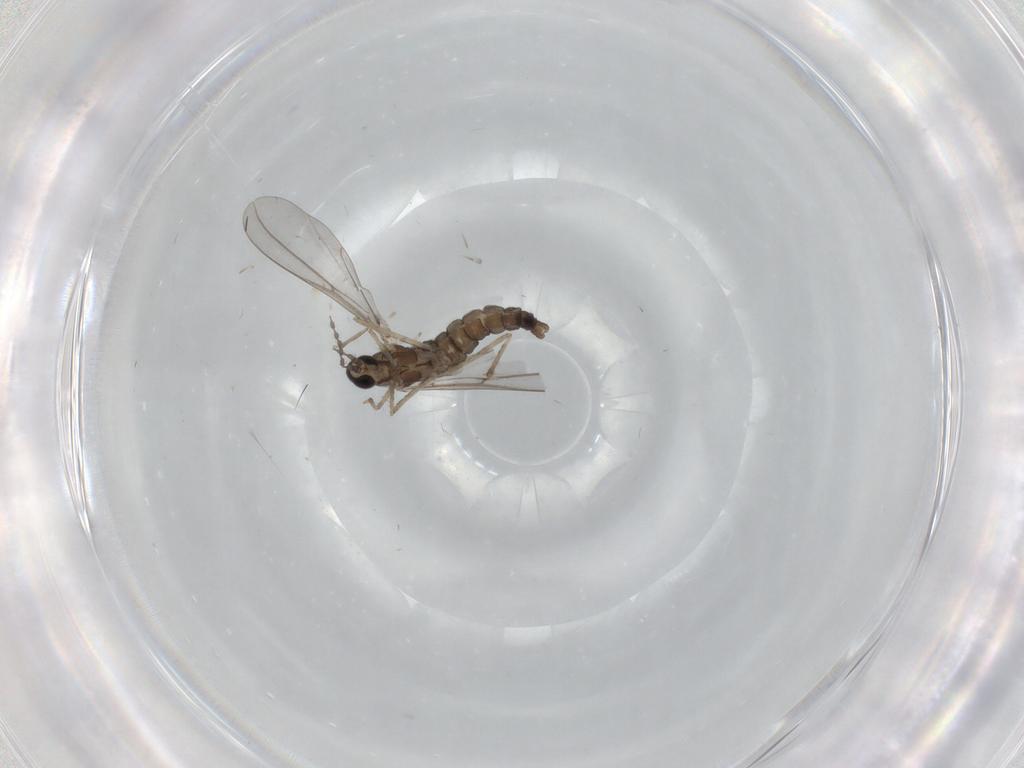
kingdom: Animalia
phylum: Arthropoda
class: Insecta
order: Diptera
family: Cecidomyiidae
